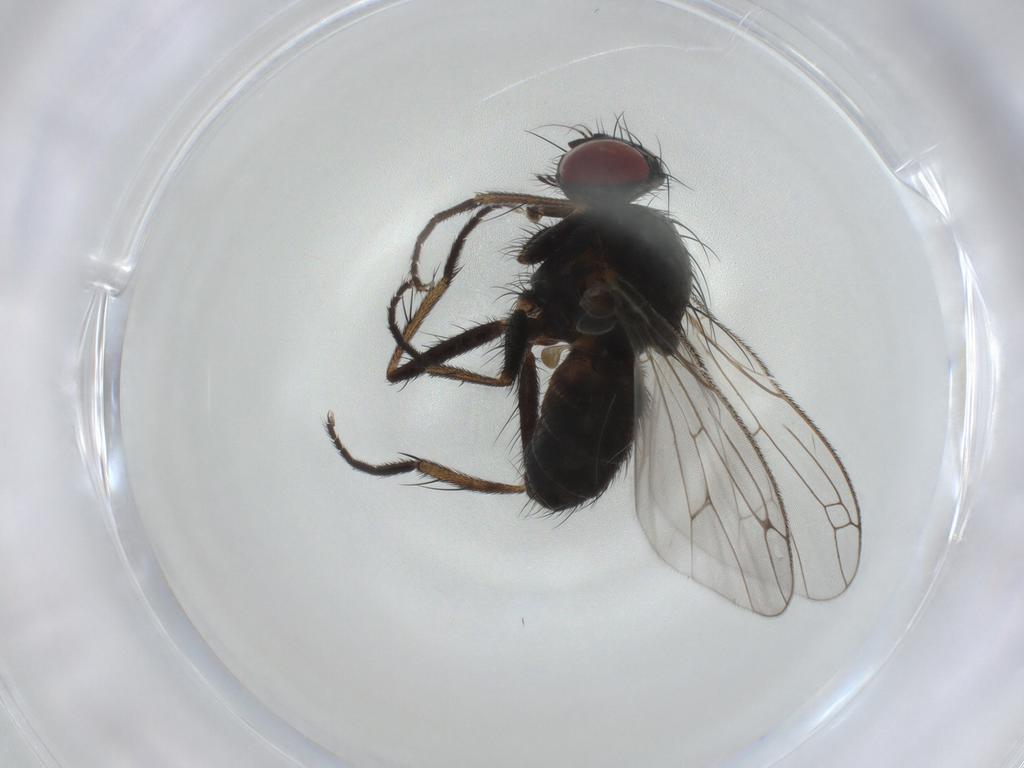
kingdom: Animalia
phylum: Arthropoda
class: Insecta
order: Diptera
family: Muscidae
